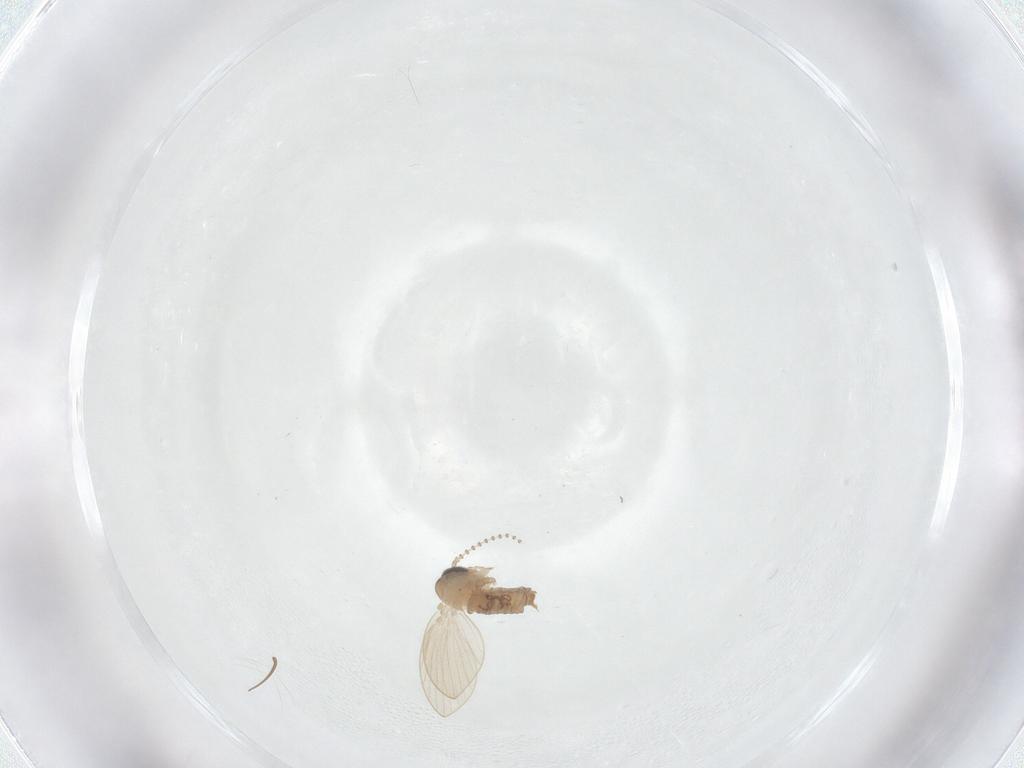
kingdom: Animalia
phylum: Arthropoda
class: Insecta
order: Diptera
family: Psychodidae
